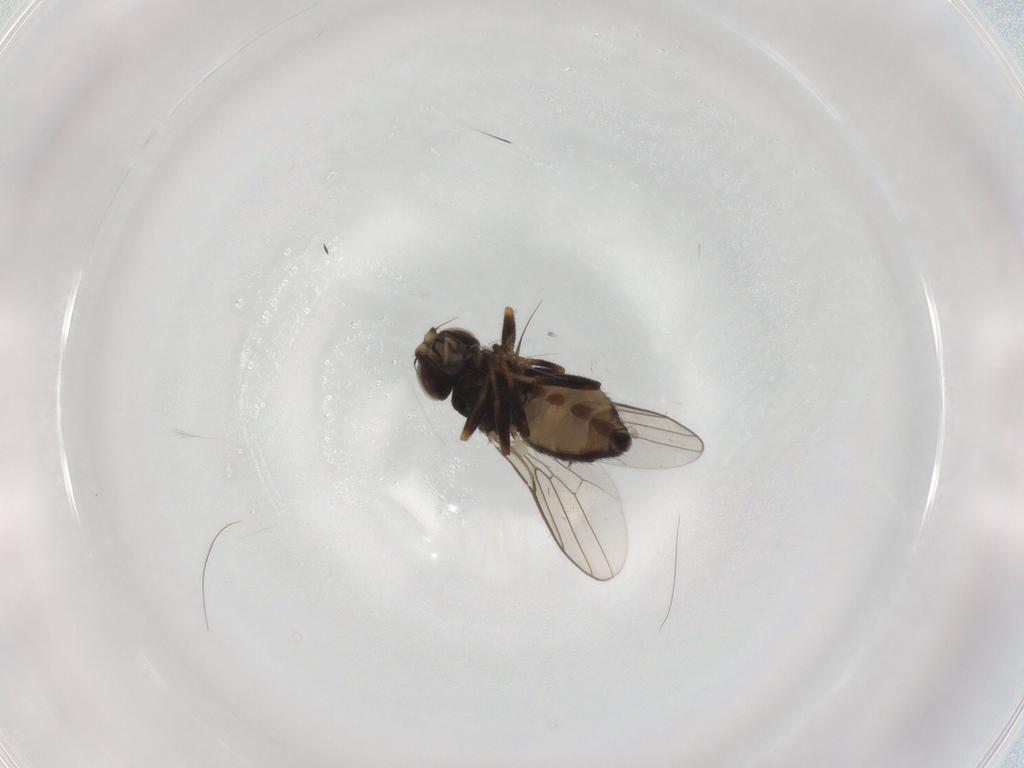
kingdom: Animalia
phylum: Arthropoda
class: Insecta
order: Diptera
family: Chloropidae
